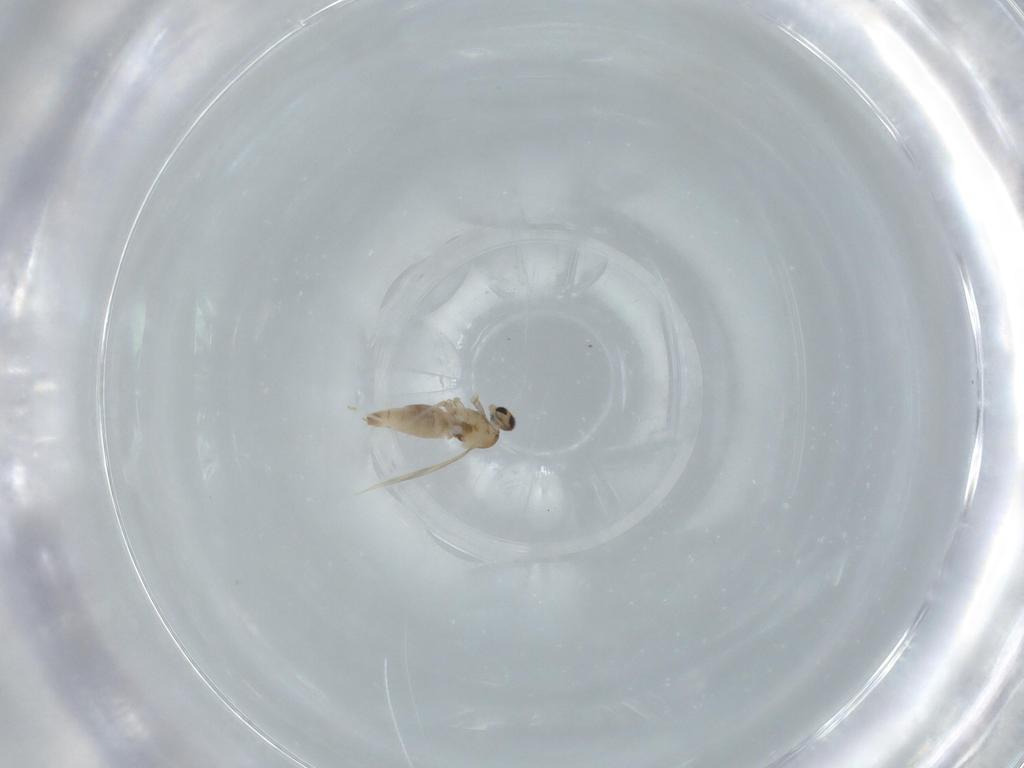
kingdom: Animalia
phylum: Arthropoda
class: Insecta
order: Diptera
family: Cecidomyiidae
